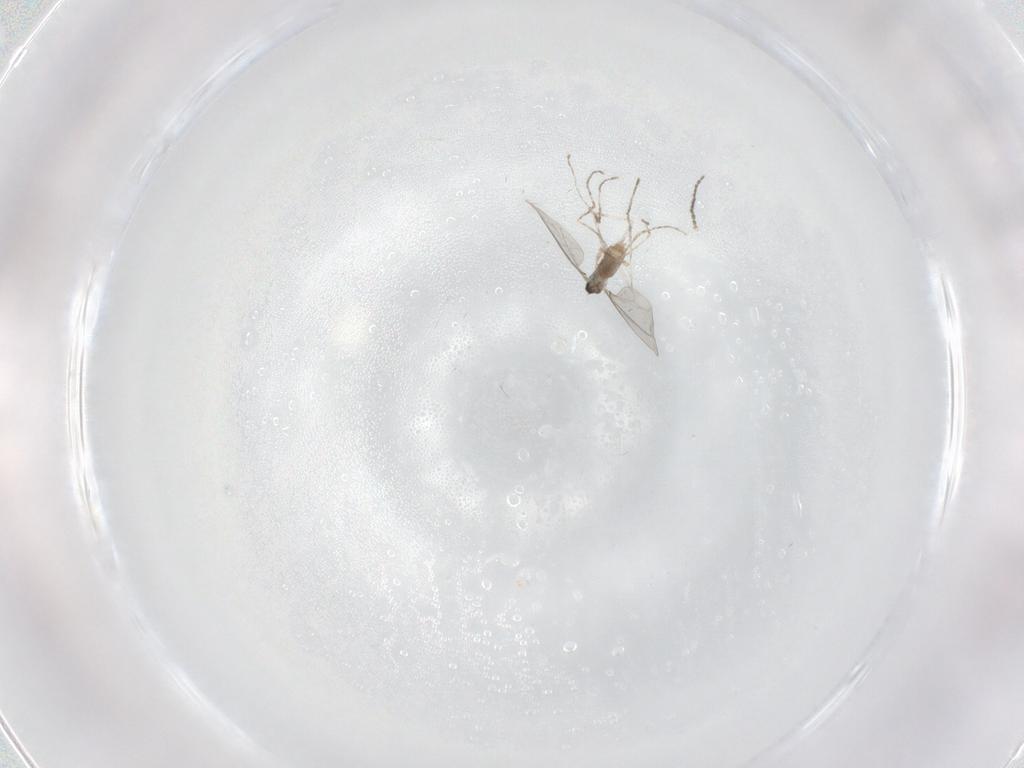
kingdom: Animalia
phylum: Arthropoda
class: Insecta
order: Diptera
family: Cecidomyiidae
